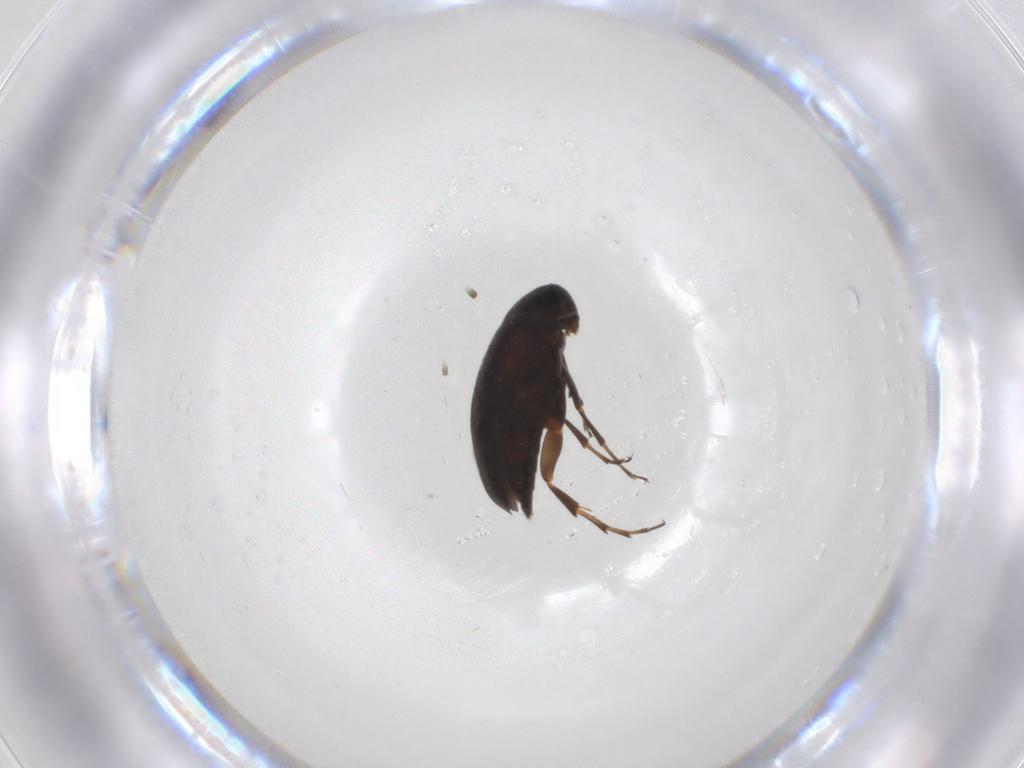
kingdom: Animalia
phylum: Arthropoda
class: Insecta
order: Coleoptera
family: Scraptiidae
